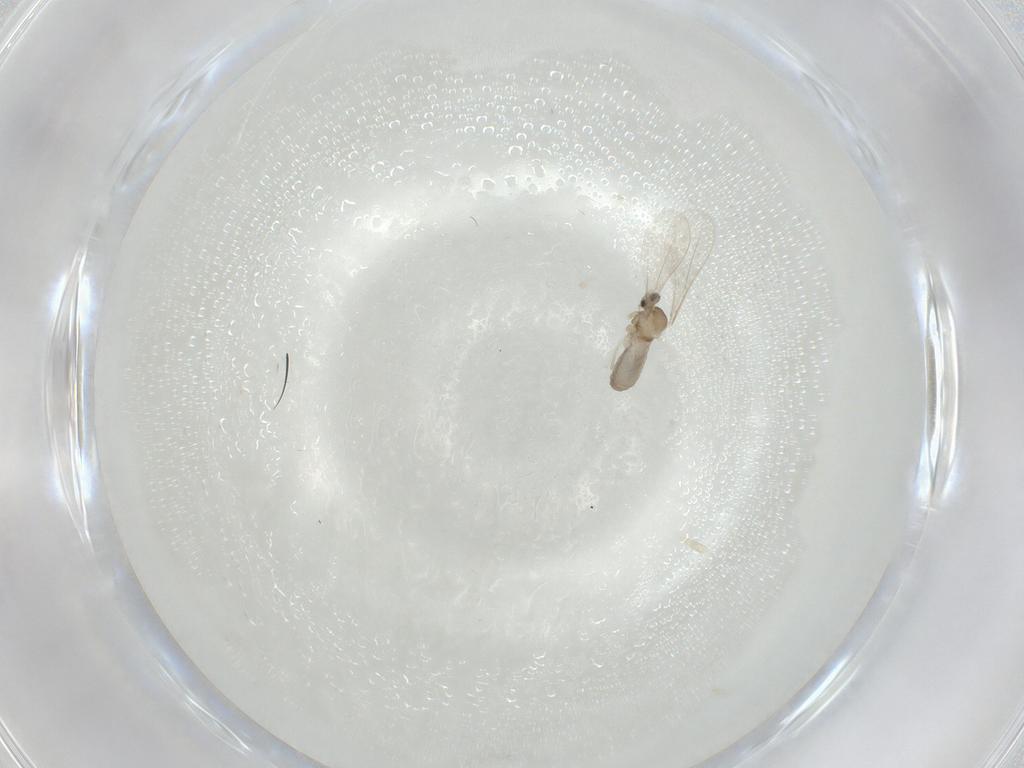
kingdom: Animalia
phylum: Arthropoda
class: Insecta
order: Diptera
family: Cecidomyiidae
